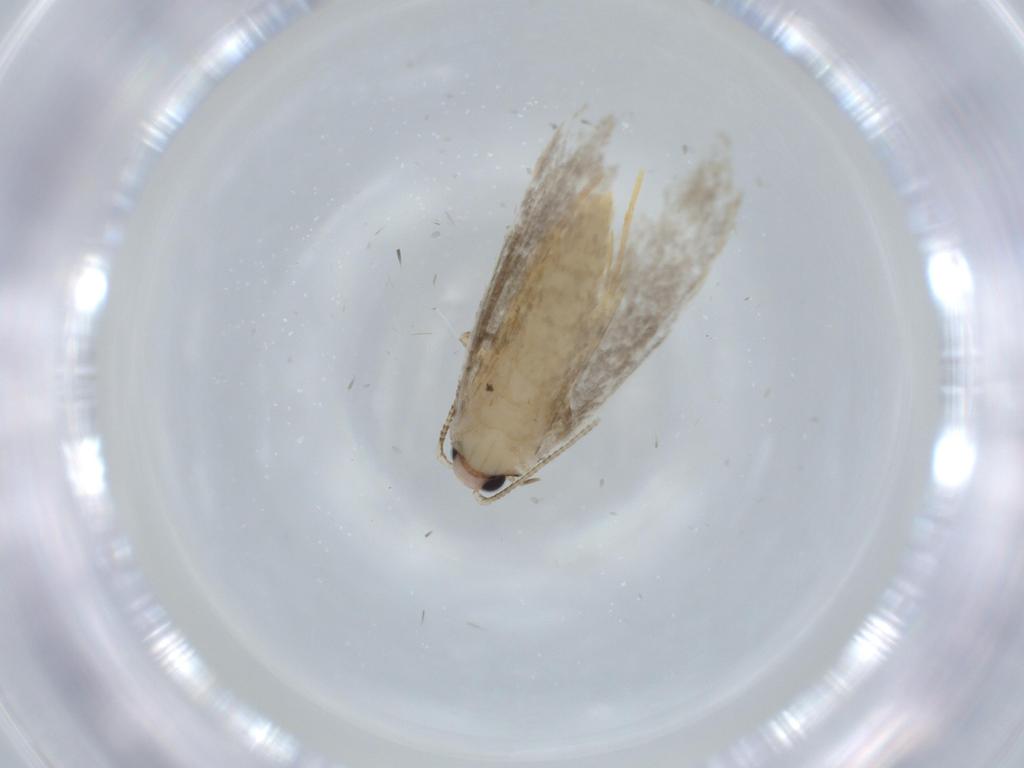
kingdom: Animalia
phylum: Arthropoda
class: Insecta
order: Lepidoptera
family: Tineidae
